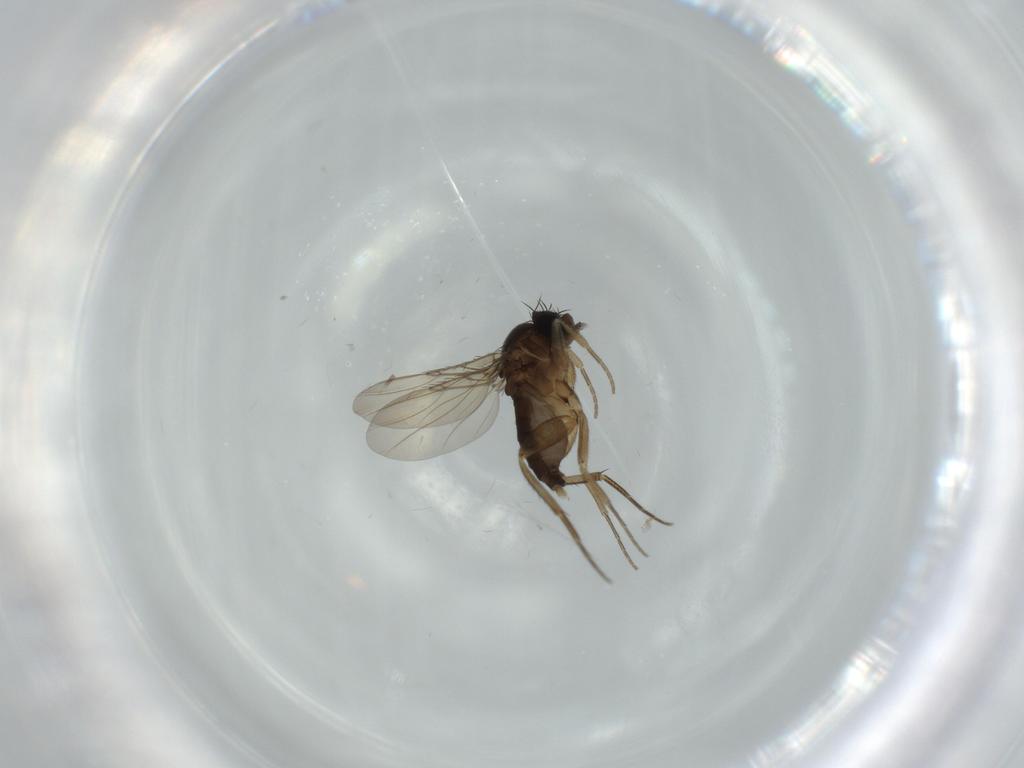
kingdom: Animalia
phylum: Arthropoda
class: Insecta
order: Diptera
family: Phoridae
